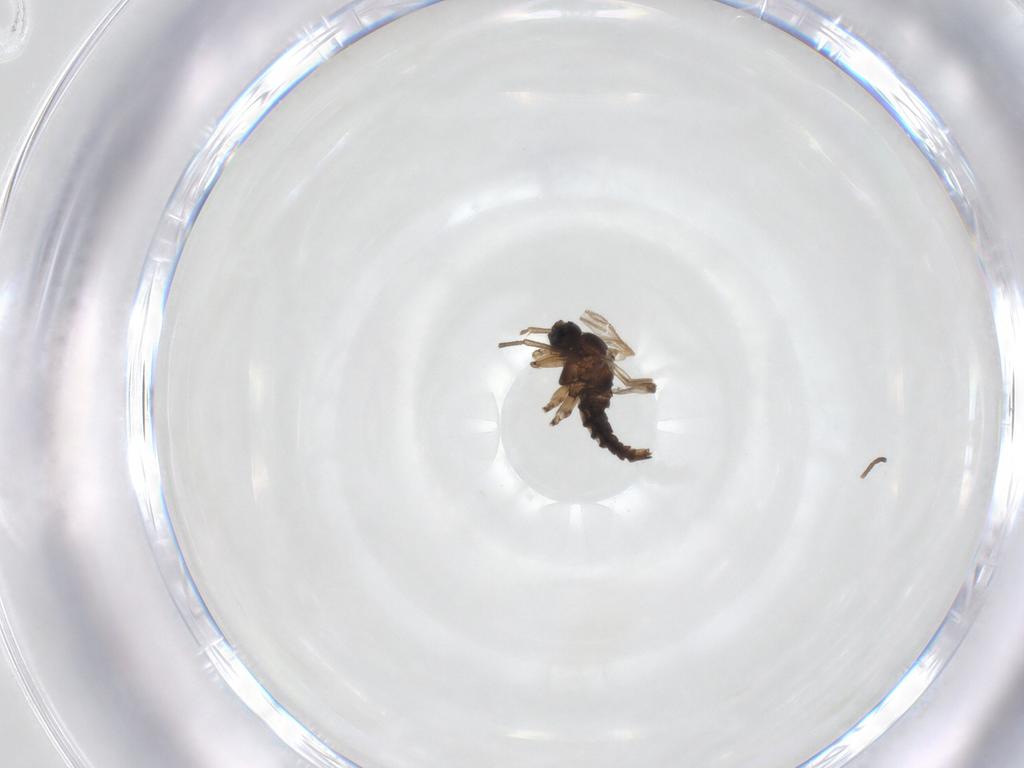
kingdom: Animalia
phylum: Arthropoda
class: Insecta
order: Diptera
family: Sciaridae
